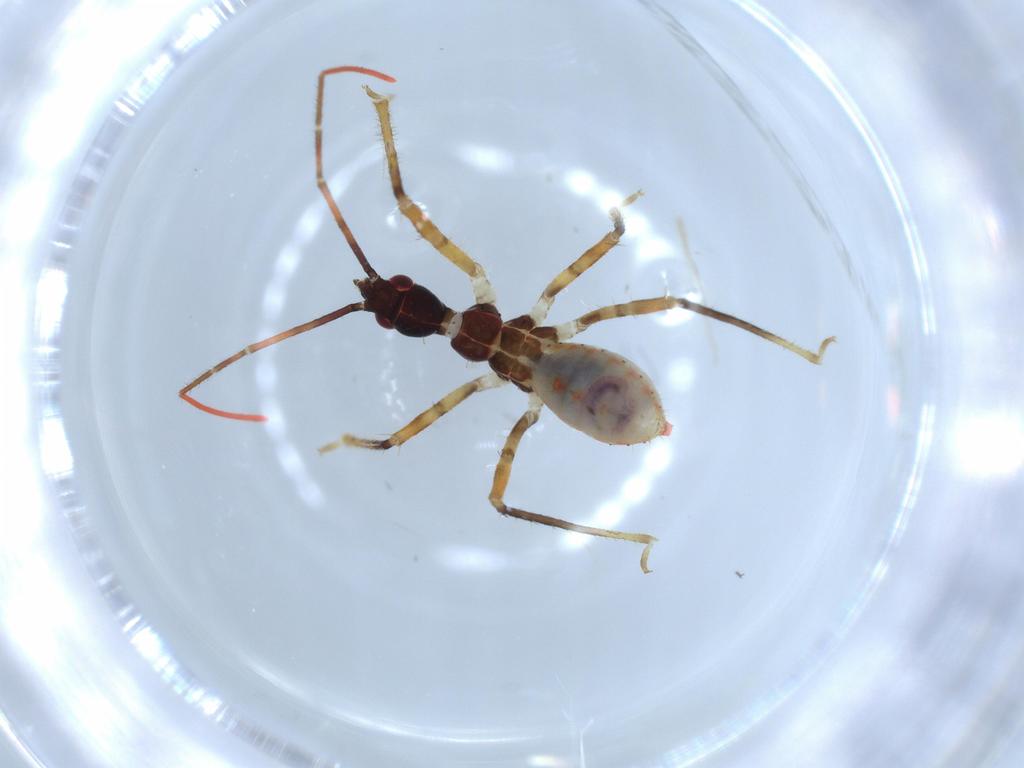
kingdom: Animalia
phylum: Arthropoda
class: Insecta
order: Hemiptera
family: Reduviidae
